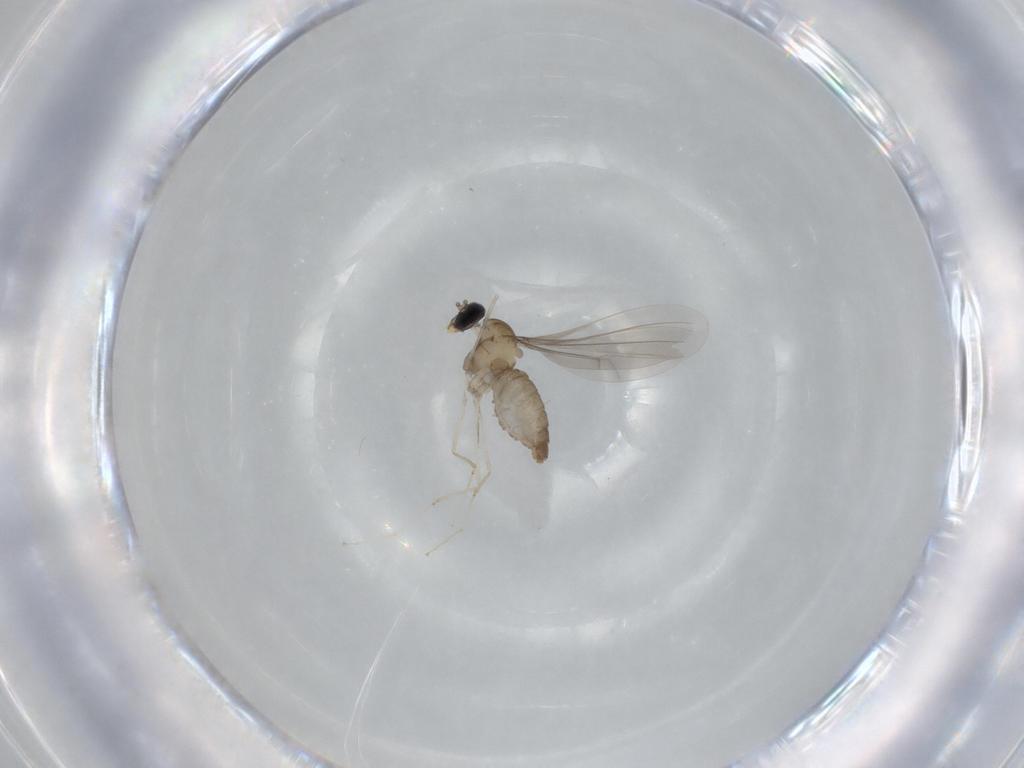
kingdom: Animalia
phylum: Arthropoda
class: Insecta
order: Diptera
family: Cecidomyiidae
